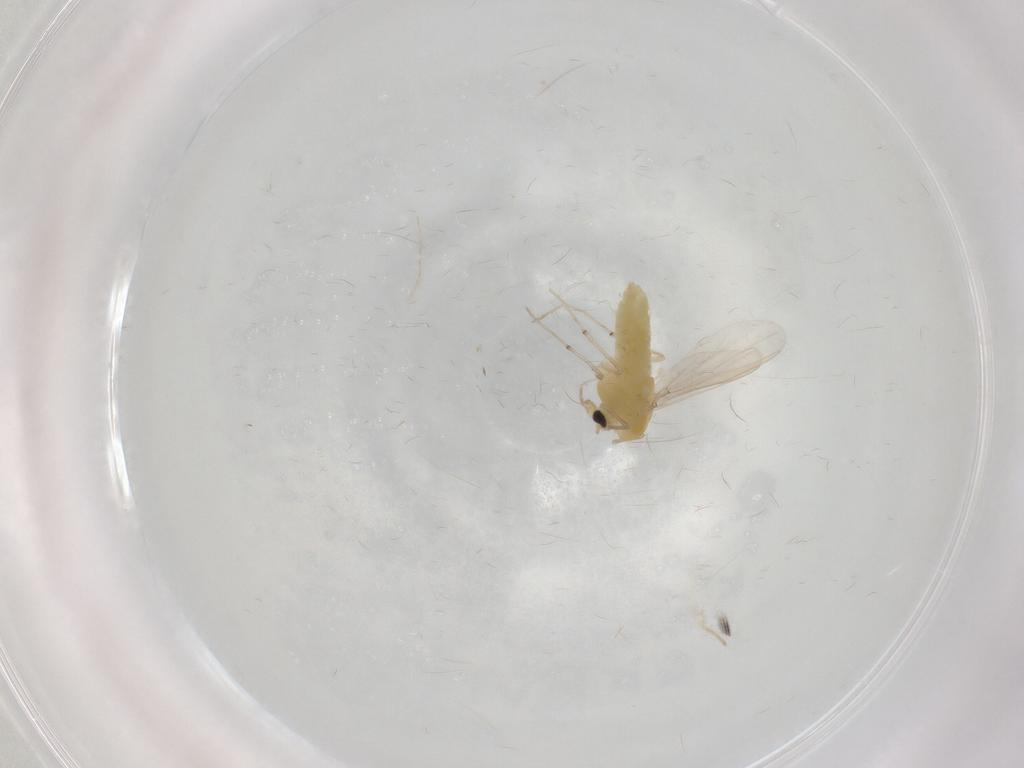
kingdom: Animalia
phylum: Arthropoda
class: Insecta
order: Diptera
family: Chironomidae
